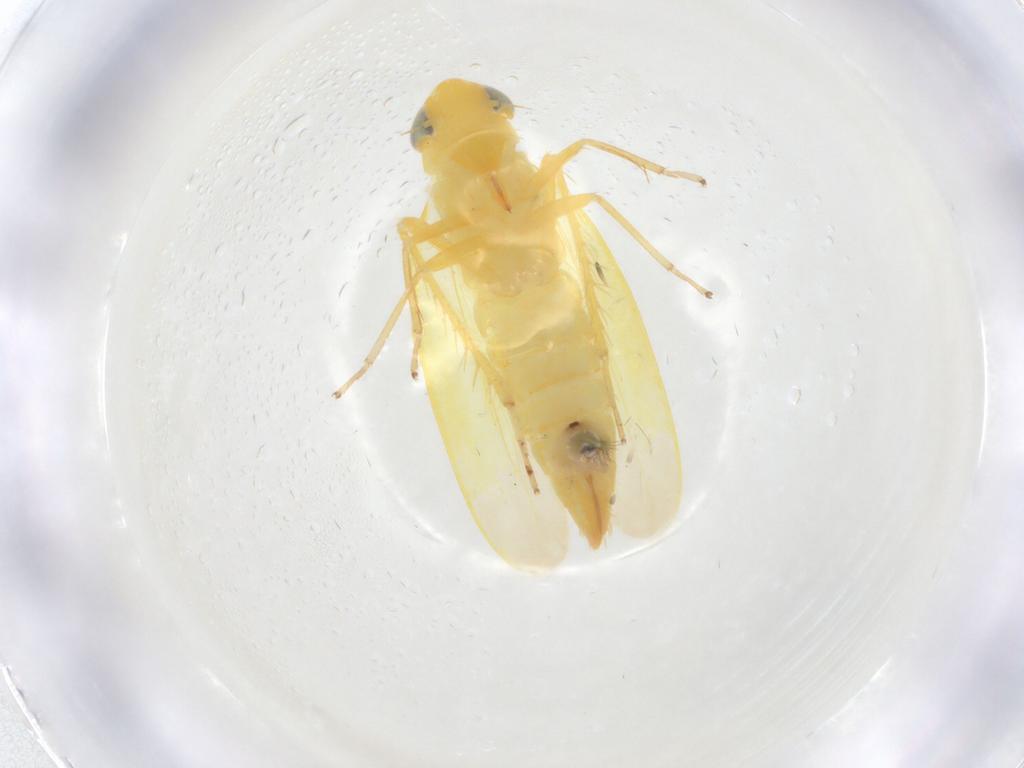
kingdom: Animalia
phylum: Arthropoda
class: Insecta
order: Hemiptera
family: Cicadellidae
